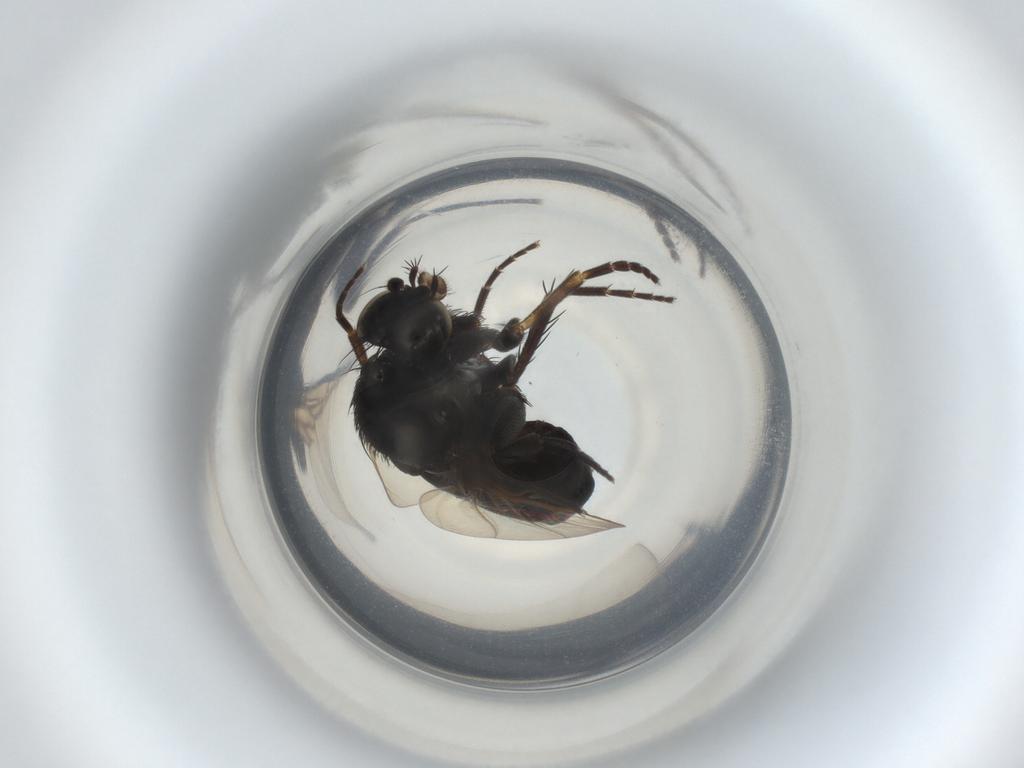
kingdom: Animalia
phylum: Arthropoda
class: Insecta
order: Diptera
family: Phoridae
